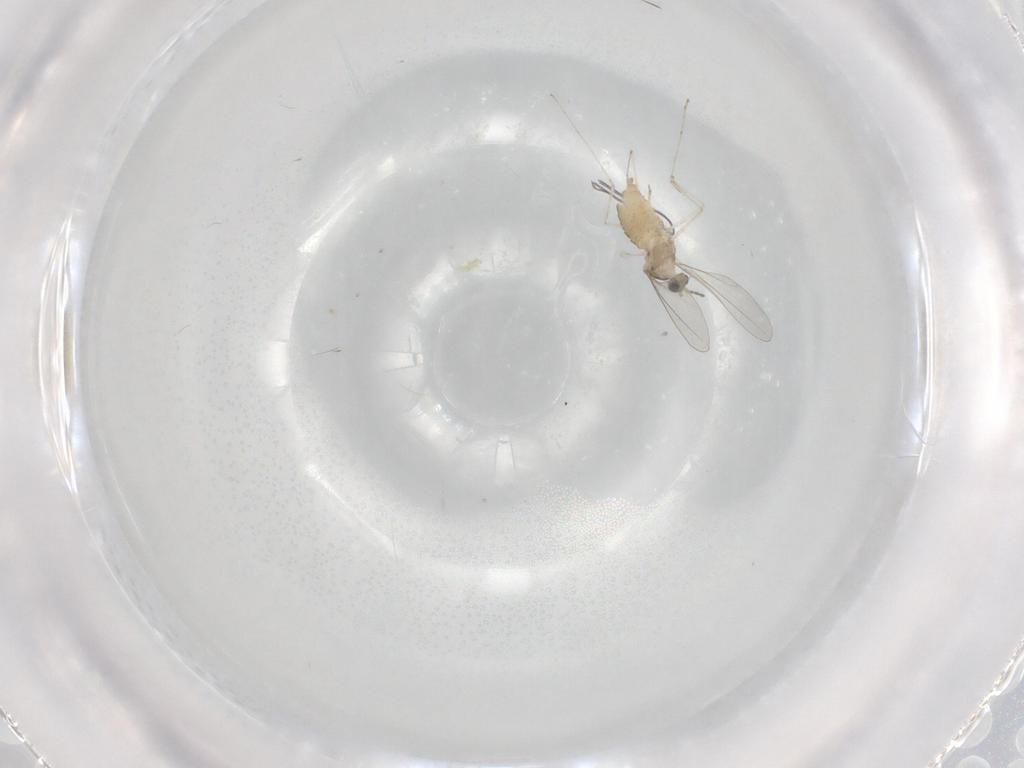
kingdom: Animalia
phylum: Arthropoda
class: Insecta
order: Diptera
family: Cecidomyiidae
